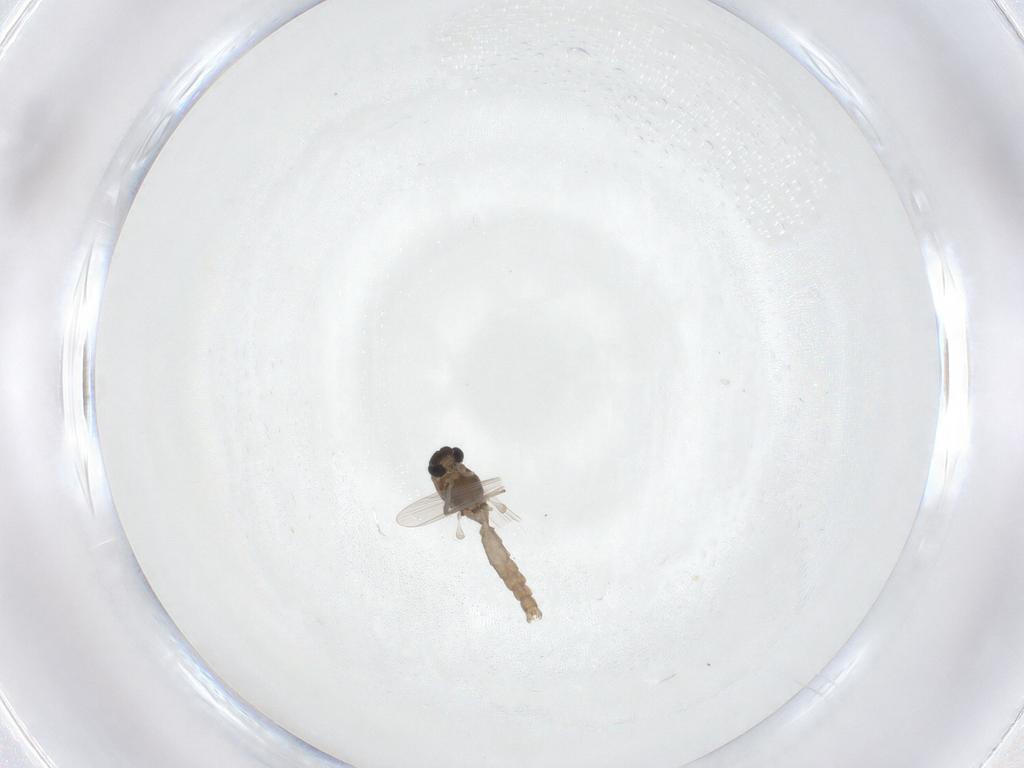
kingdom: Animalia
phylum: Arthropoda
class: Insecta
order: Diptera
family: Chironomidae
